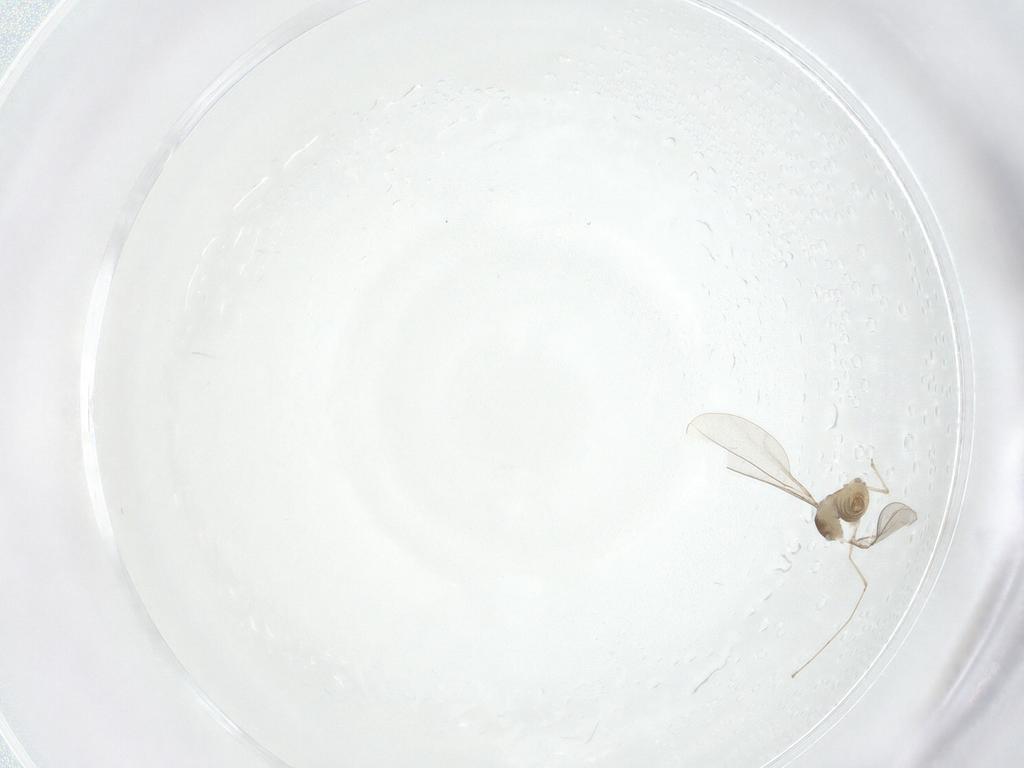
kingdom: Animalia
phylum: Arthropoda
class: Insecta
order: Diptera
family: Cecidomyiidae
